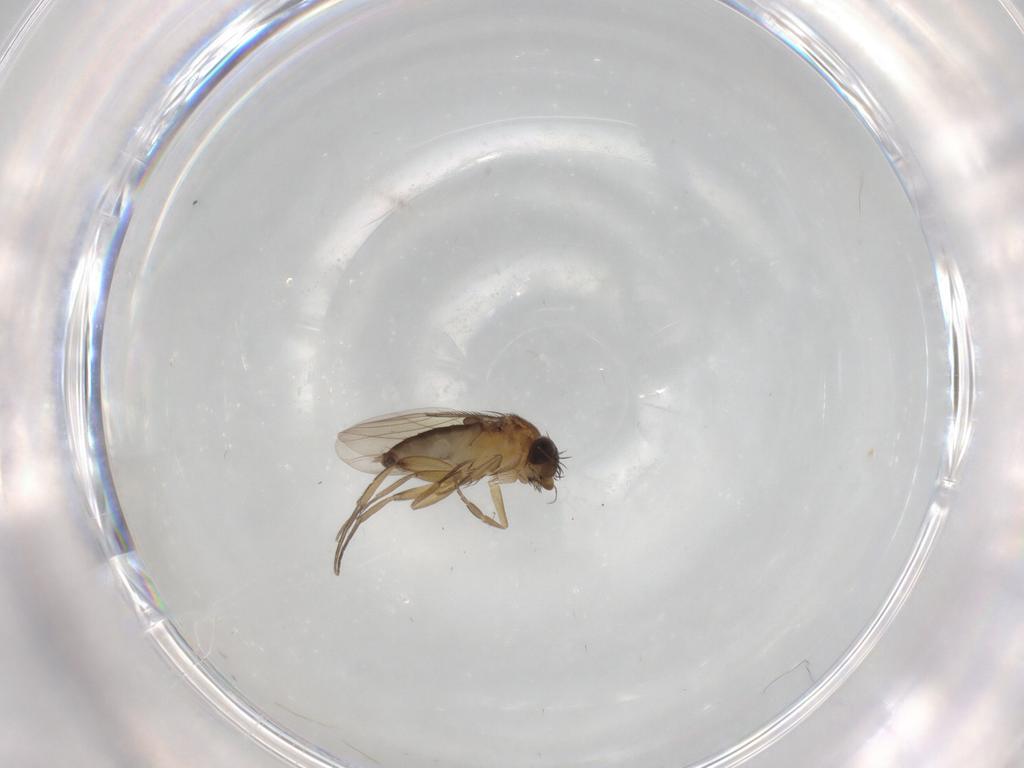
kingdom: Animalia
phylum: Arthropoda
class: Insecta
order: Diptera
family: Phoridae
